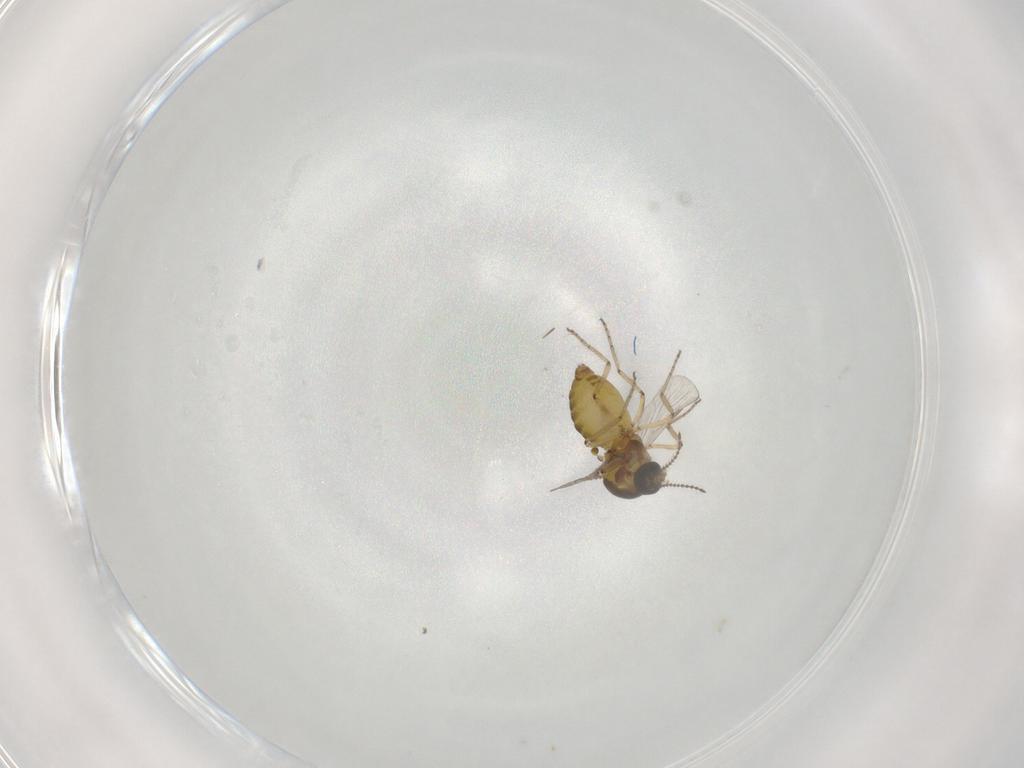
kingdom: Animalia
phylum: Arthropoda
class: Insecta
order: Diptera
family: Ceratopogonidae
